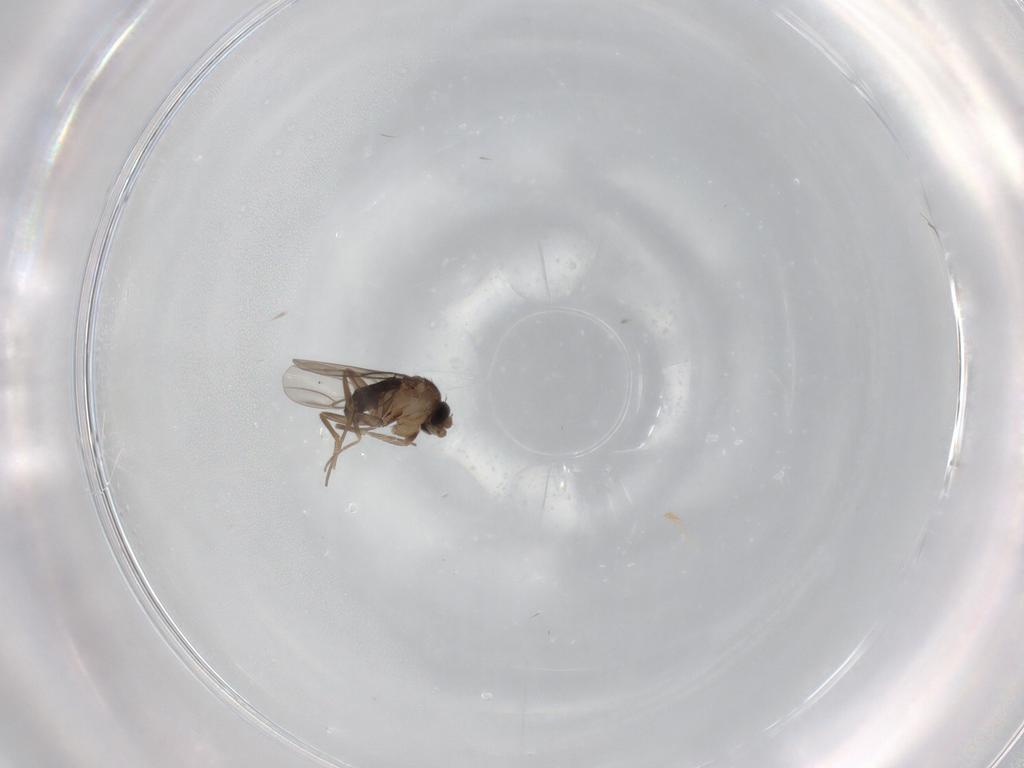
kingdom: Animalia
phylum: Arthropoda
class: Insecta
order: Diptera
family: Phoridae
